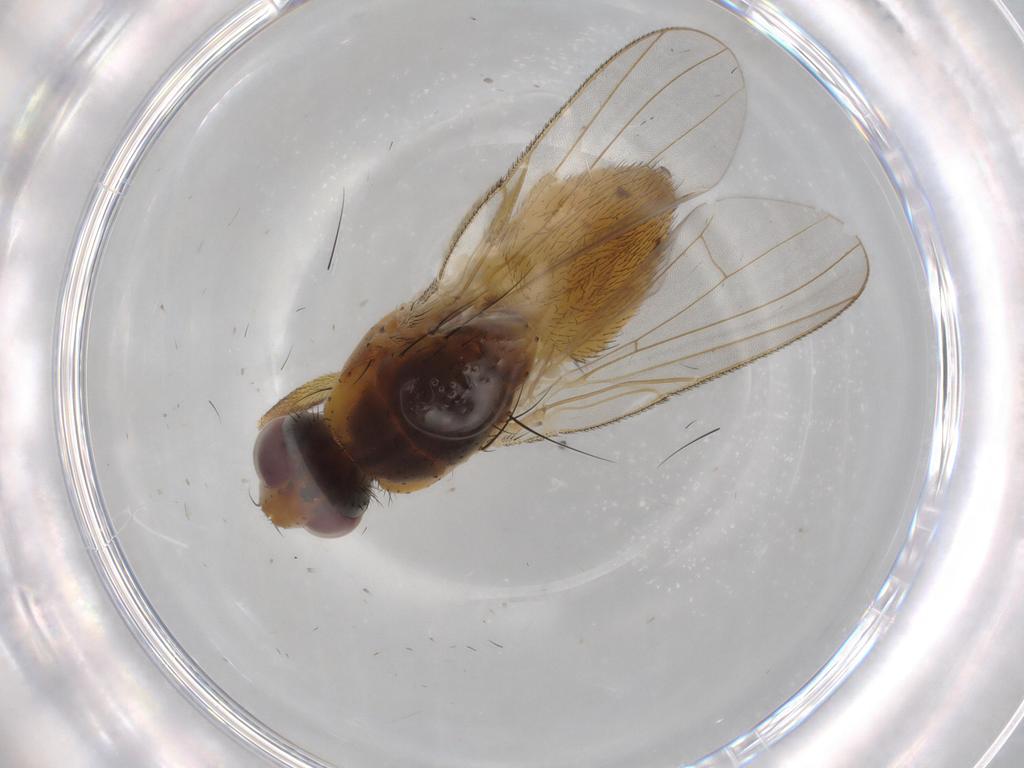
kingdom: Animalia
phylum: Arthropoda
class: Insecta
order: Diptera
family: Muscidae
